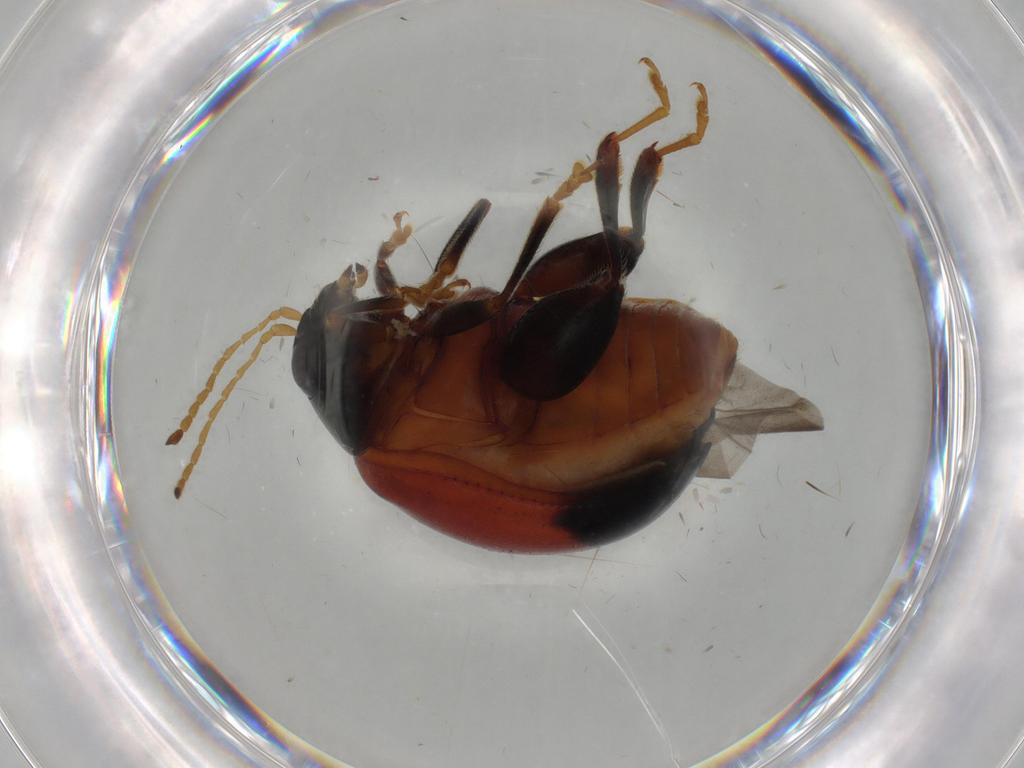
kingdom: Animalia
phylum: Arthropoda
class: Insecta
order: Coleoptera
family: Chrysomelidae
